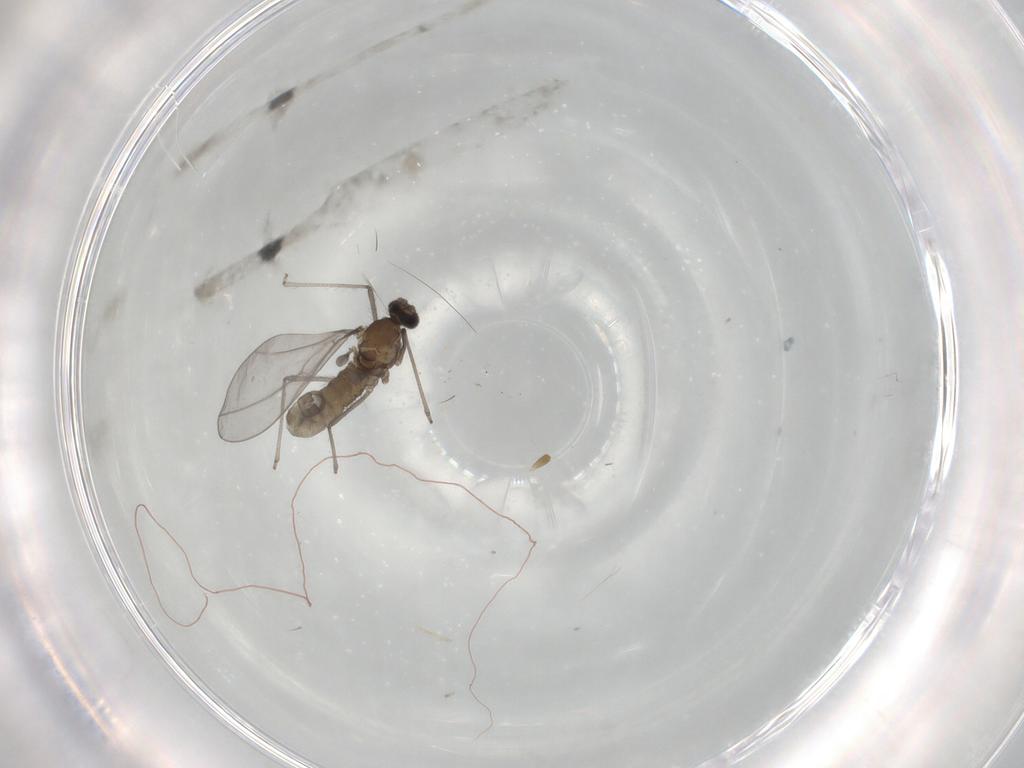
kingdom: Animalia
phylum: Arthropoda
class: Insecta
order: Diptera
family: Cecidomyiidae
